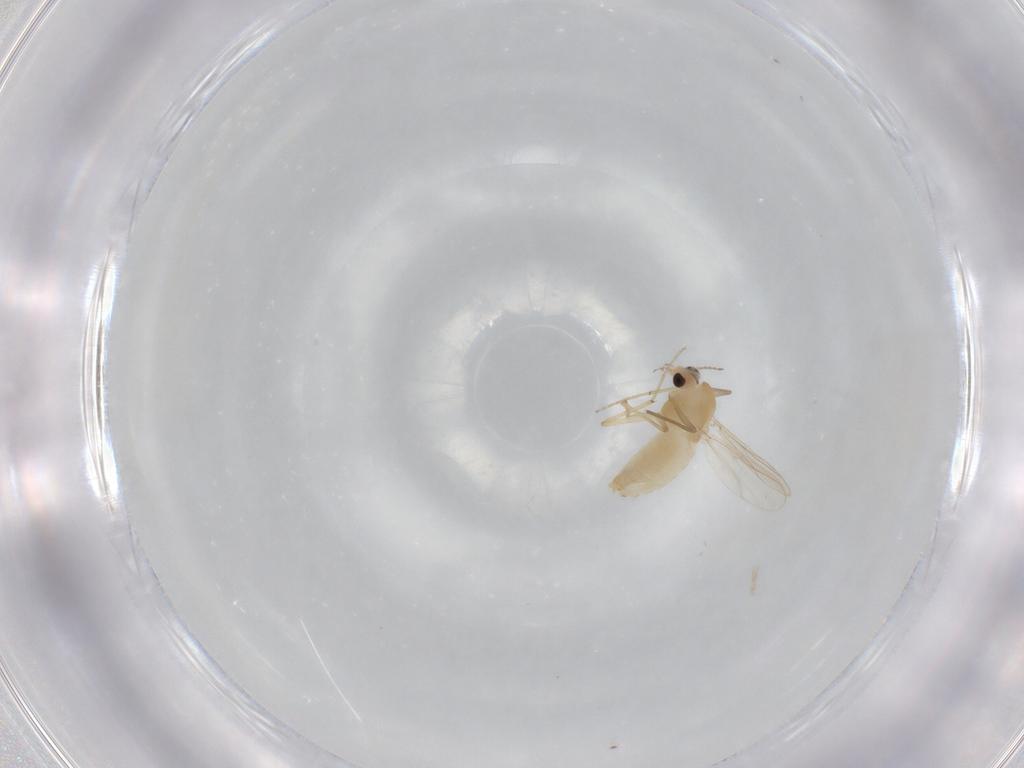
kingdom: Animalia
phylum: Arthropoda
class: Insecta
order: Diptera
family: Chironomidae
